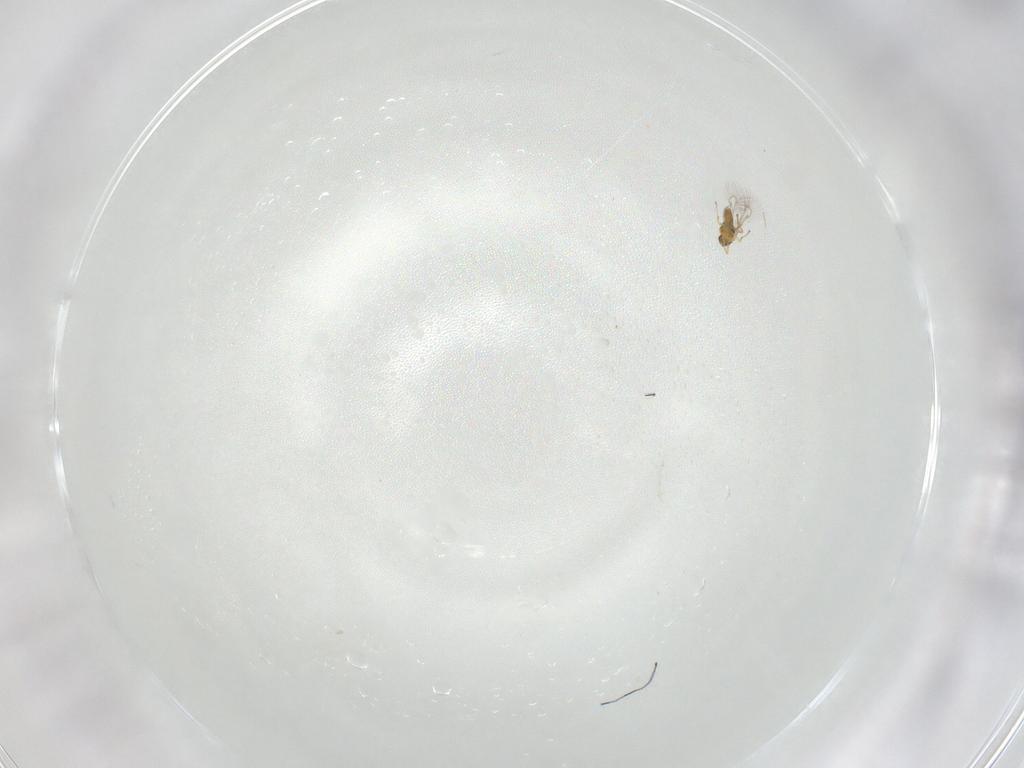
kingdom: Animalia
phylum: Arthropoda
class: Insecta
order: Hymenoptera
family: Eulophidae
